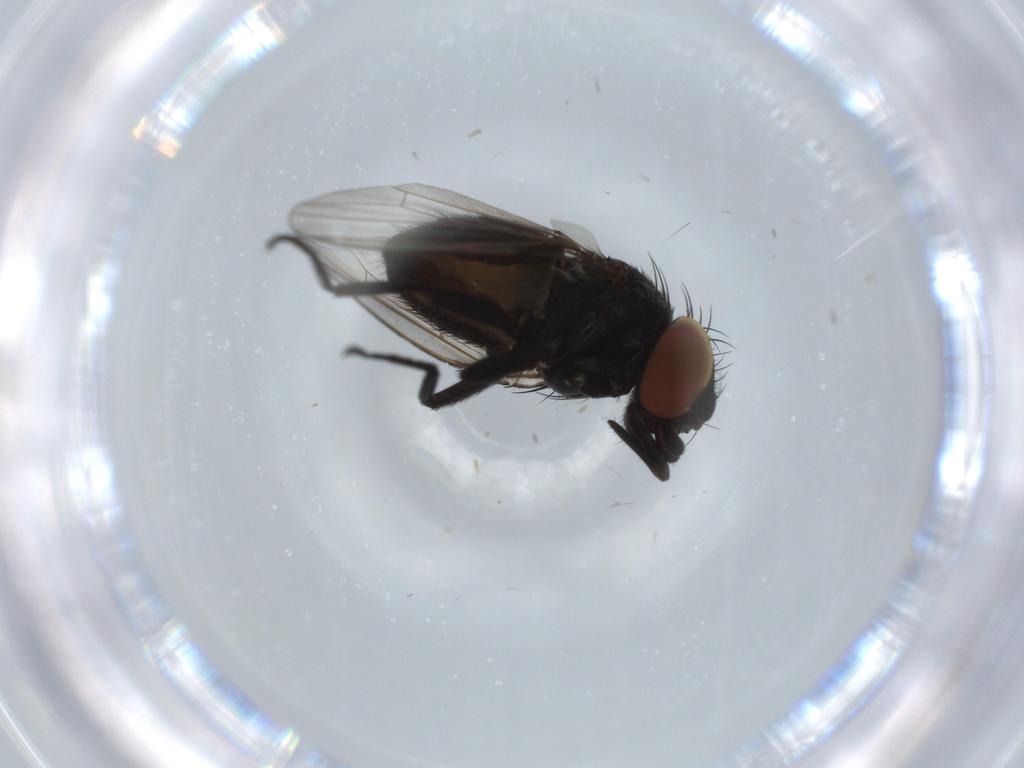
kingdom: Animalia
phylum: Arthropoda
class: Insecta
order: Diptera
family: Milichiidae
